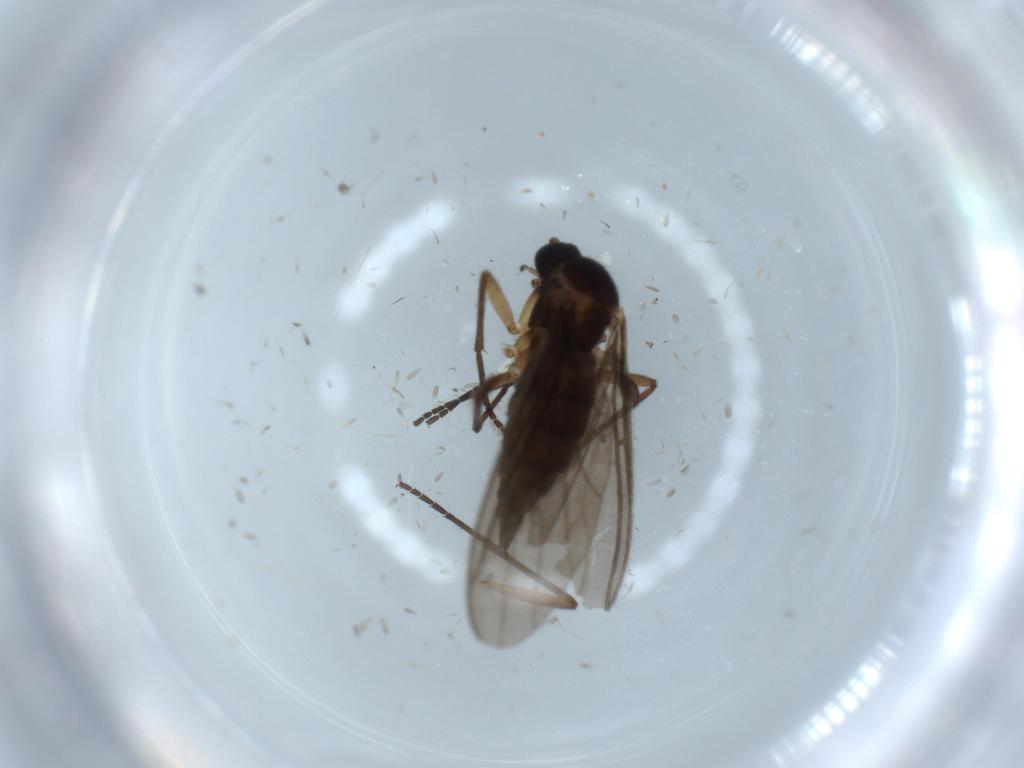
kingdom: Animalia
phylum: Arthropoda
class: Insecta
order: Diptera
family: Sciaridae
